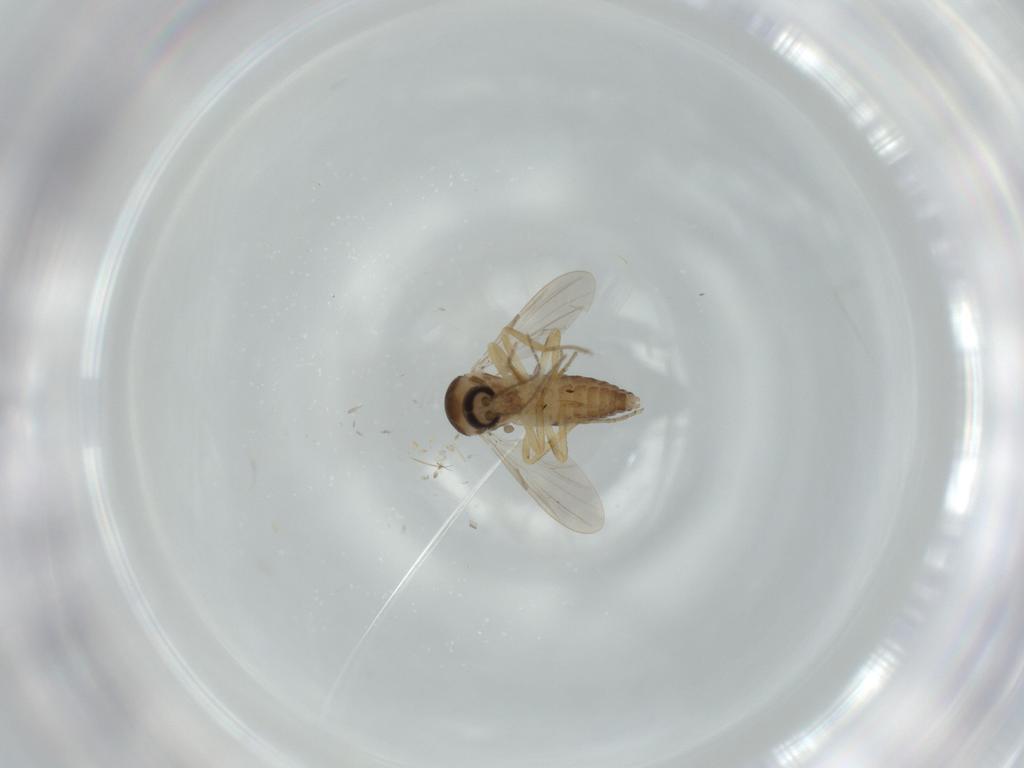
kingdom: Animalia
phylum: Arthropoda
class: Insecta
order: Diptera
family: Ceratopogonidae
